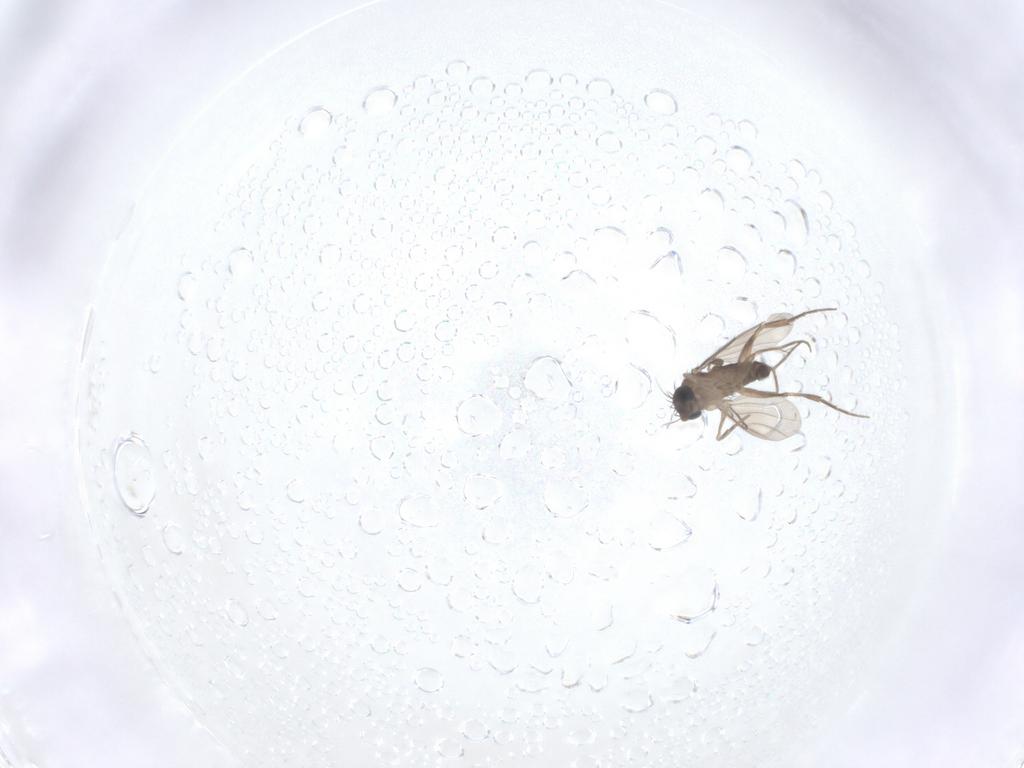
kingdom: Animalia
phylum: Arthropoda
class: Insecta
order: Diptera
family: Phoridae
